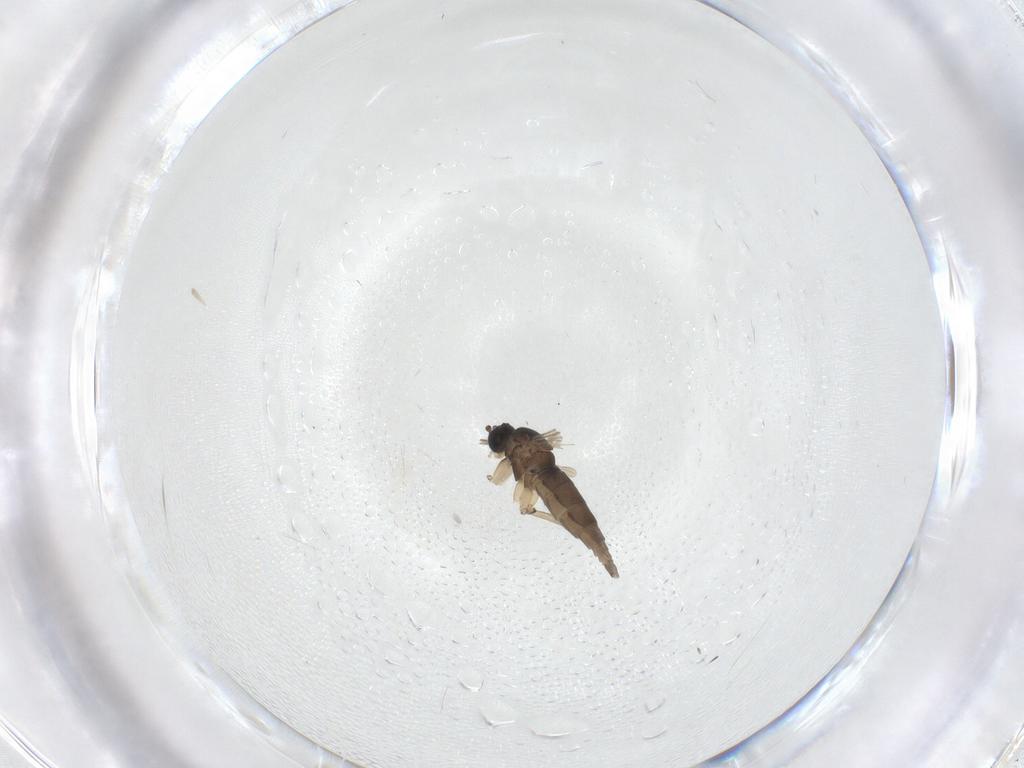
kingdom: Animalia
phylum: Arthropoda
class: Insecta
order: Diptera
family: Sciaridae
